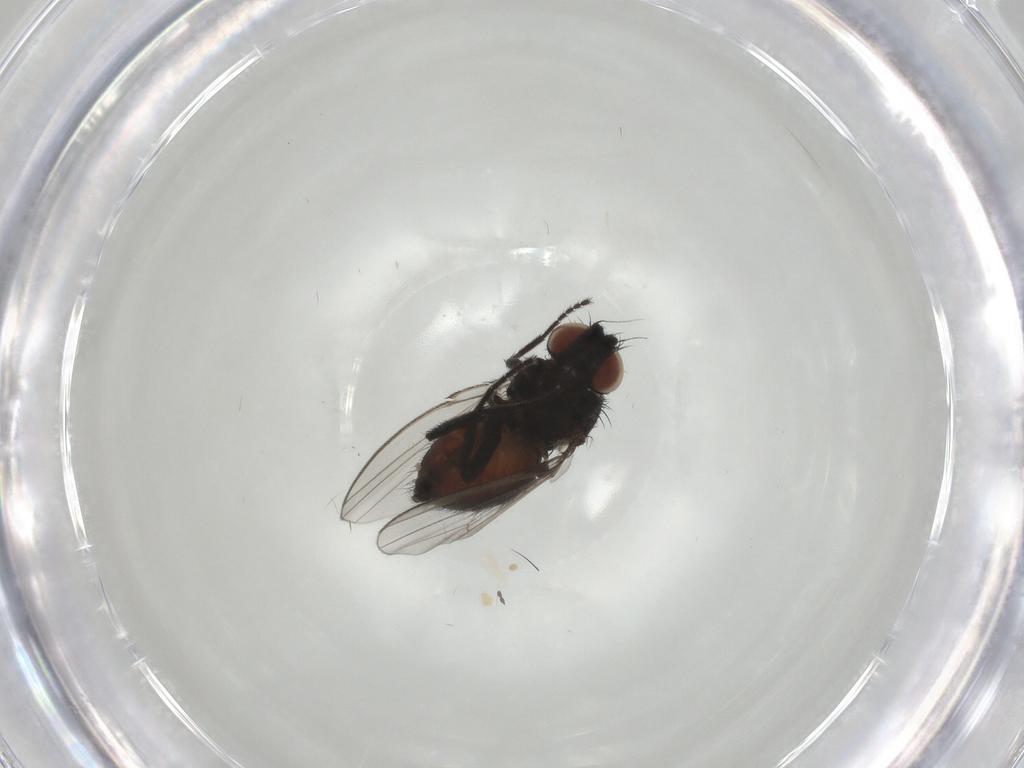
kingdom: Animalia
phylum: Arthropoda
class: Insecta
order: Diptera
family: Milichiidae
